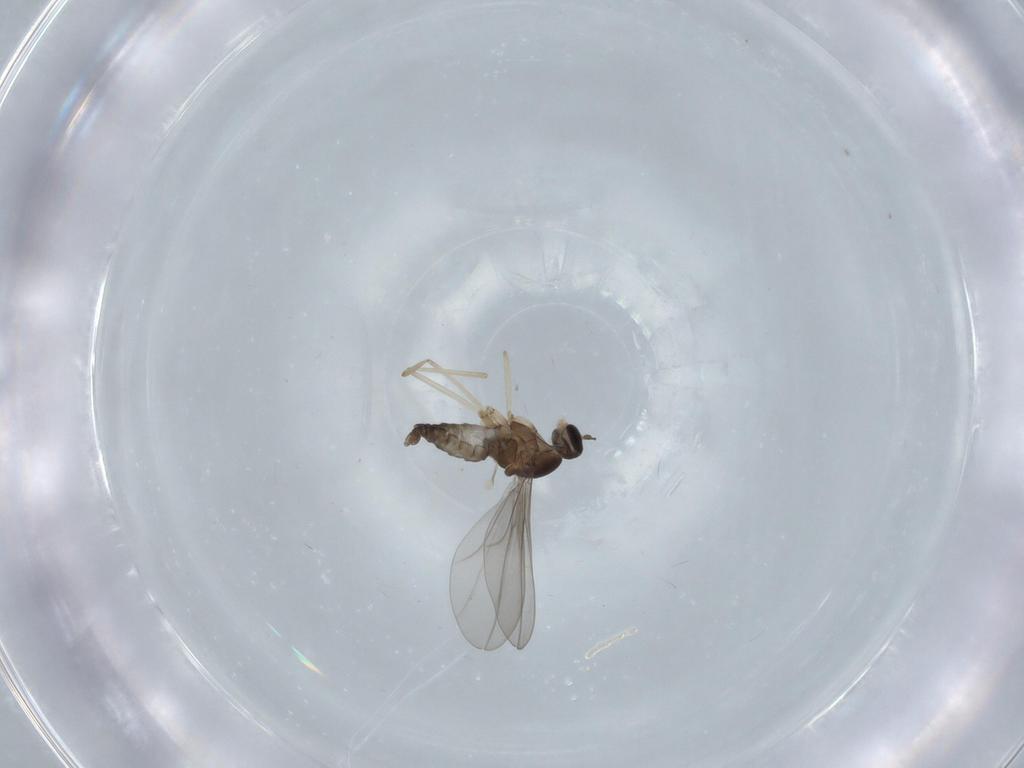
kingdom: Animalia
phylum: Arthropoda
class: Insecta
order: Diptera
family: Cecidomyiidae
